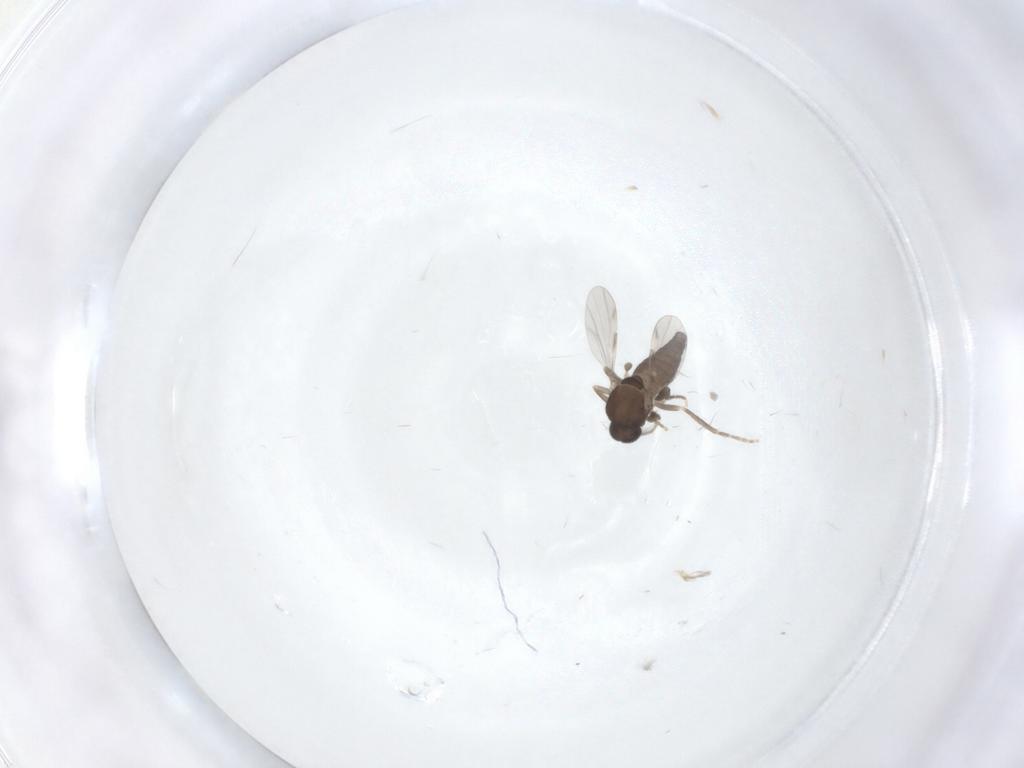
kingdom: Animalia
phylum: Arthropoda
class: Insecta
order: Diptera
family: Ceratopogonidae
